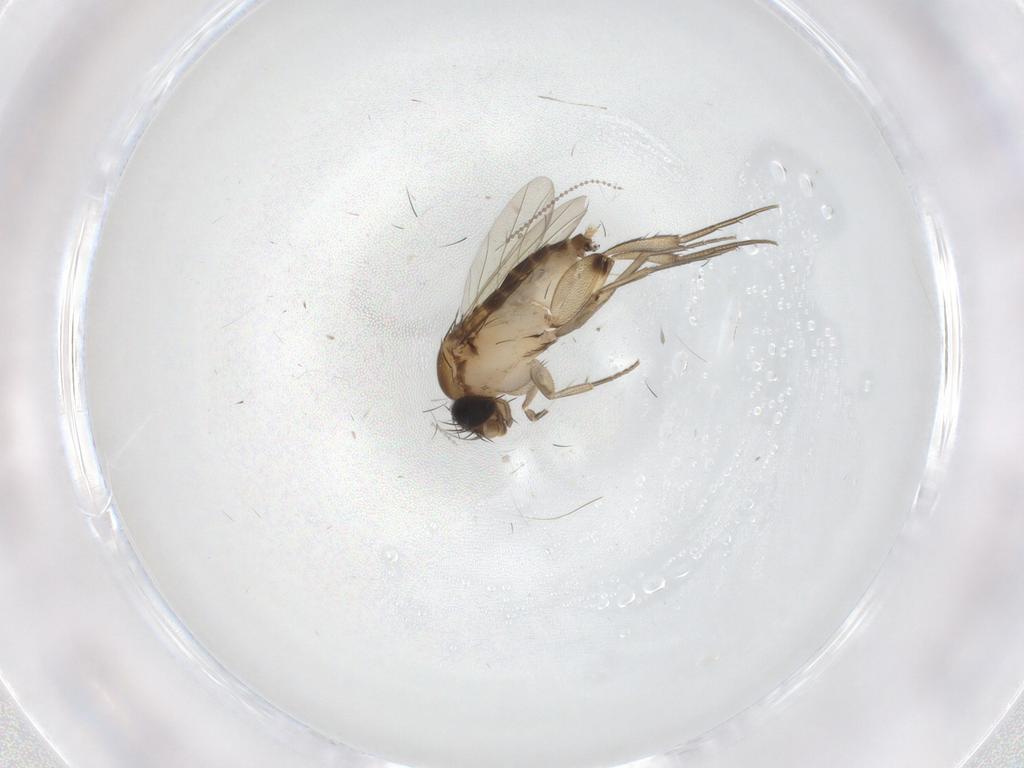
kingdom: Animalia
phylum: Arthropoda
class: Insecta
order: Diptera
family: Phoridae
